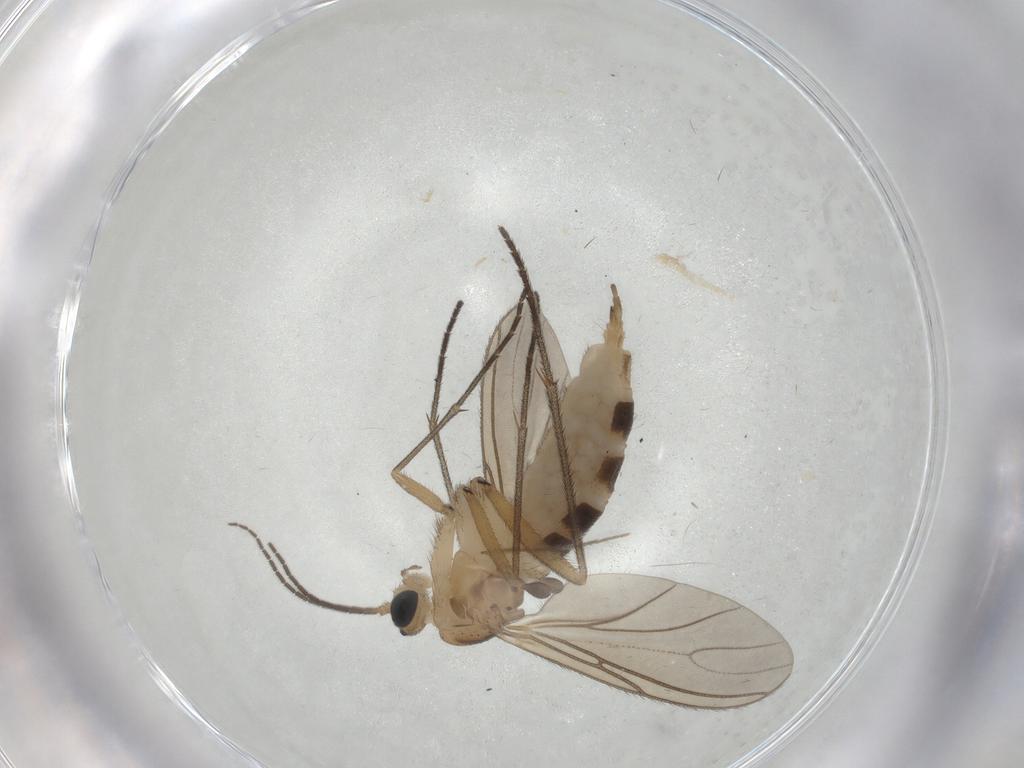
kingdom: Animalia
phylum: Arthropoda
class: Insecta
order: Diptera
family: Sciaridae
